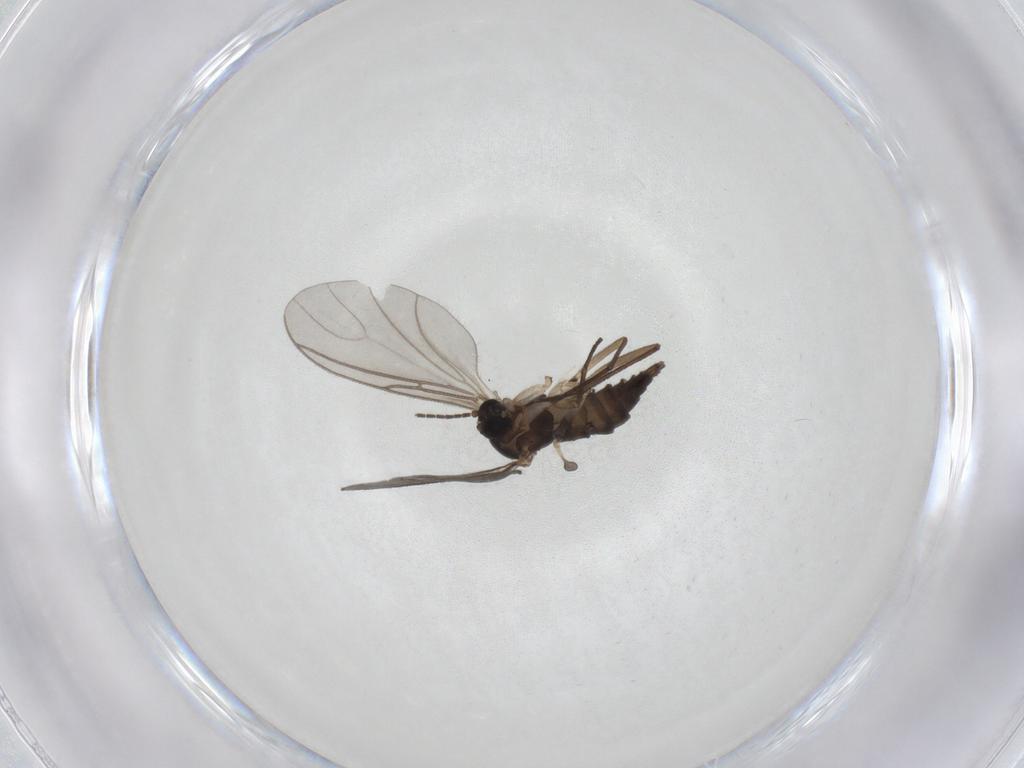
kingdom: Animalia
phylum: Arthropoda
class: Insecta
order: Diptera
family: Sciaridae
